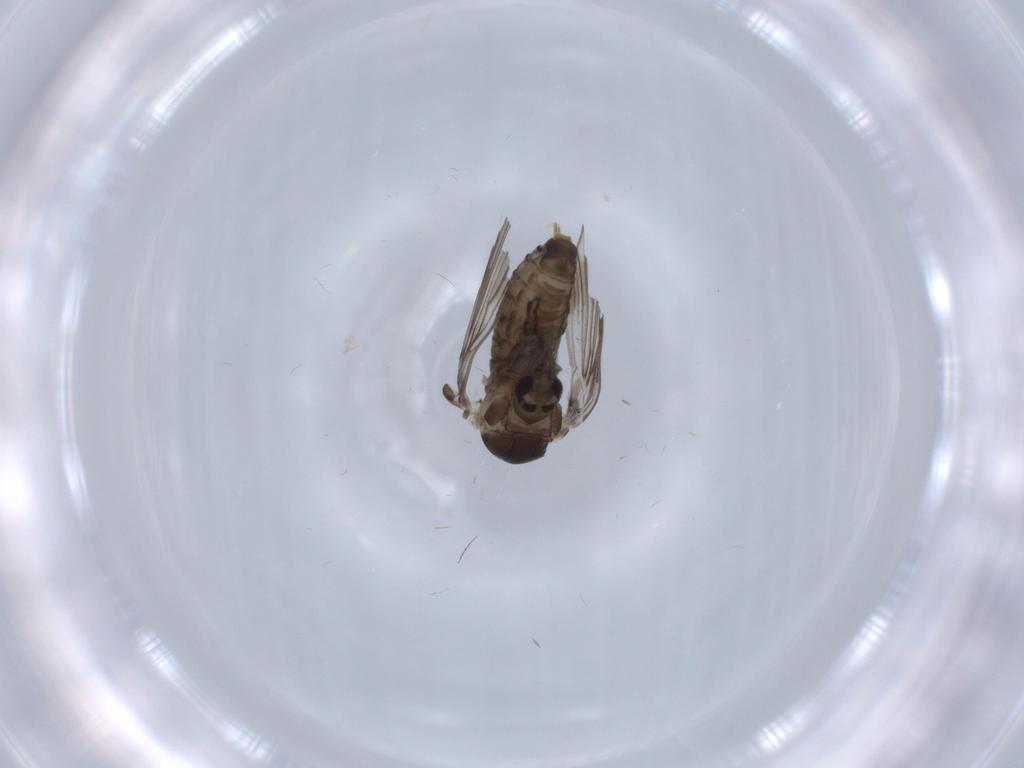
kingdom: Animalia
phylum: Arthropoda
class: Insecta
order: Diptera
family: Psychodidae
